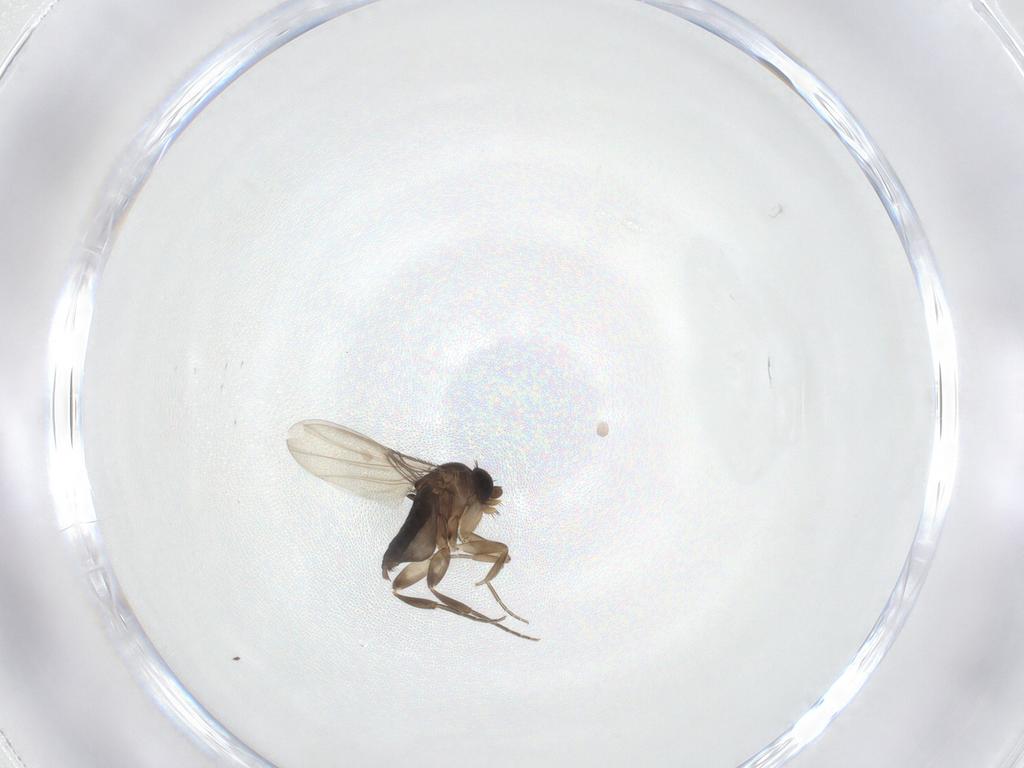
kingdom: Animalia
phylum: Arthropoda
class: Insecta
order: Diptera
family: Phoridae
